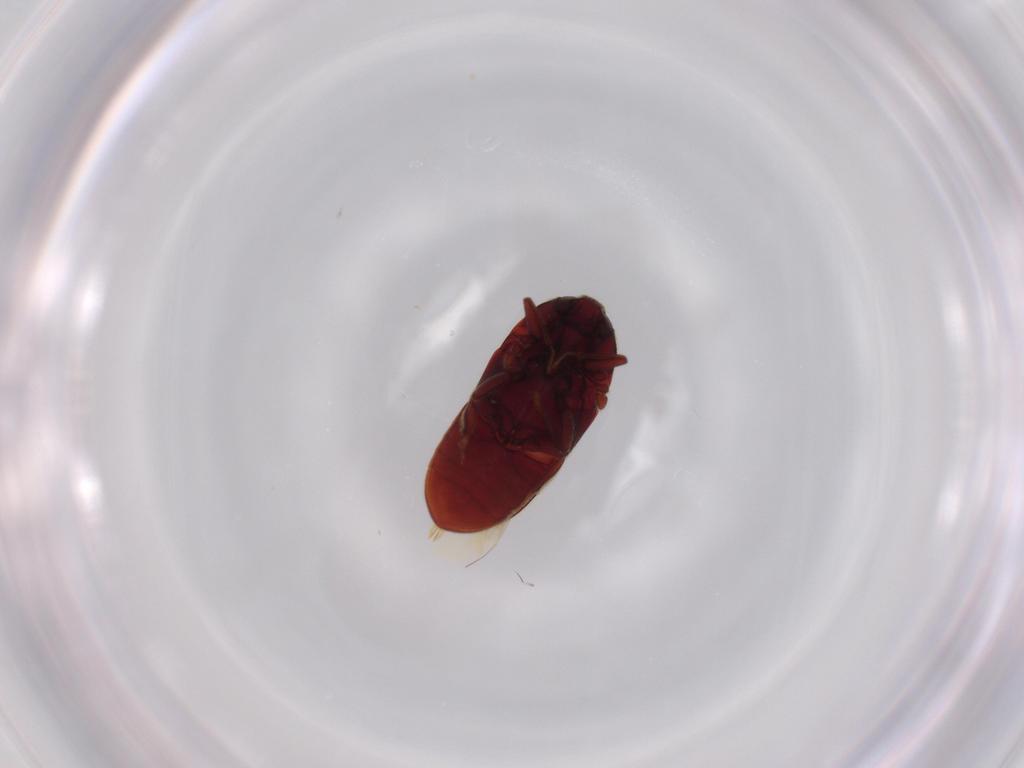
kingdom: Animalia
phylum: Arthropoda
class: Insecta
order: Coleoptera
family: Throscidae
